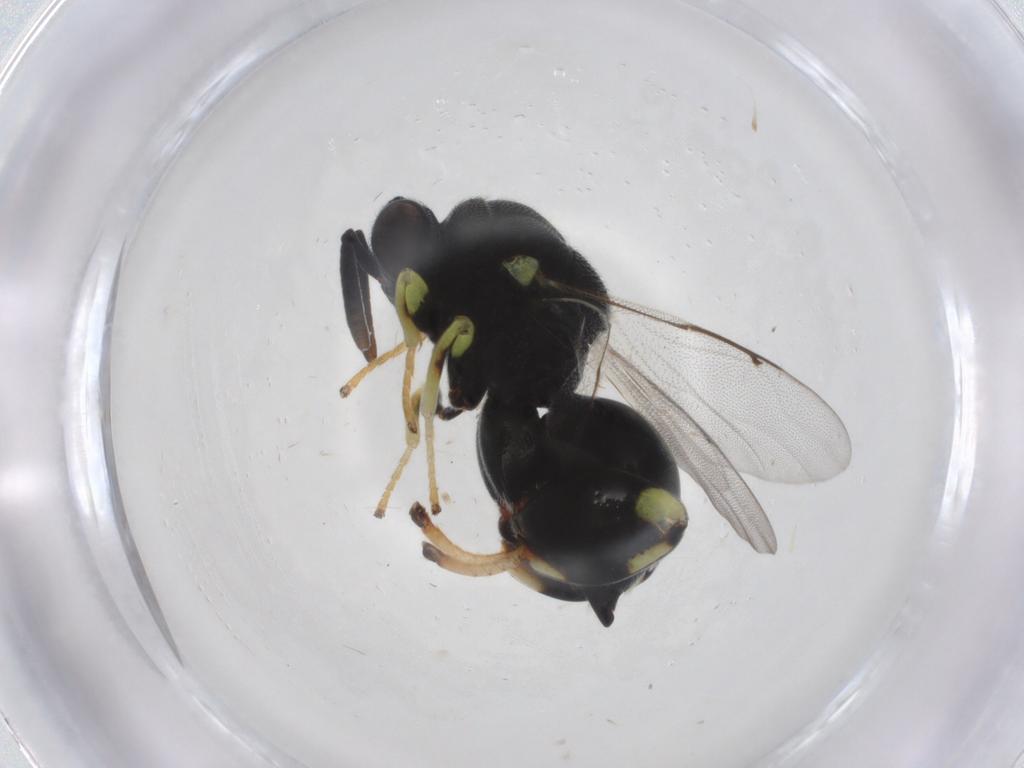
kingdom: Animalia
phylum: Arthropoda
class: Insecta
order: Hymenoptera
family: Chalcididae
